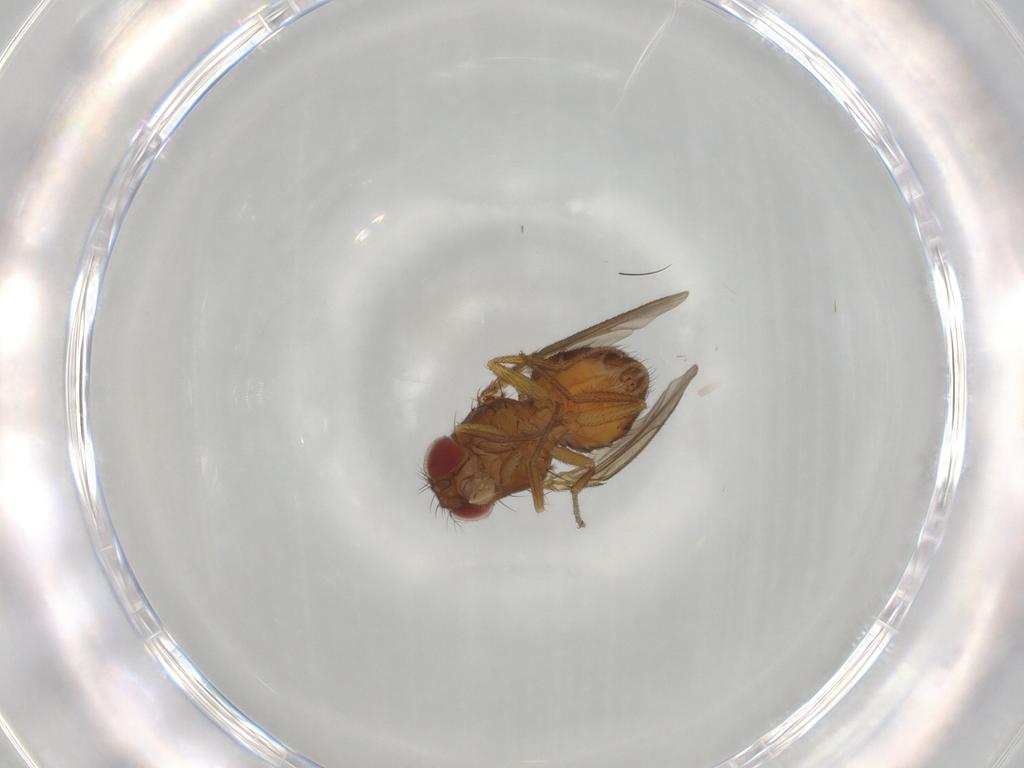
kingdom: Animalia
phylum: Arthropoda
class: Insecta
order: Diptera
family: Drosophilidae
